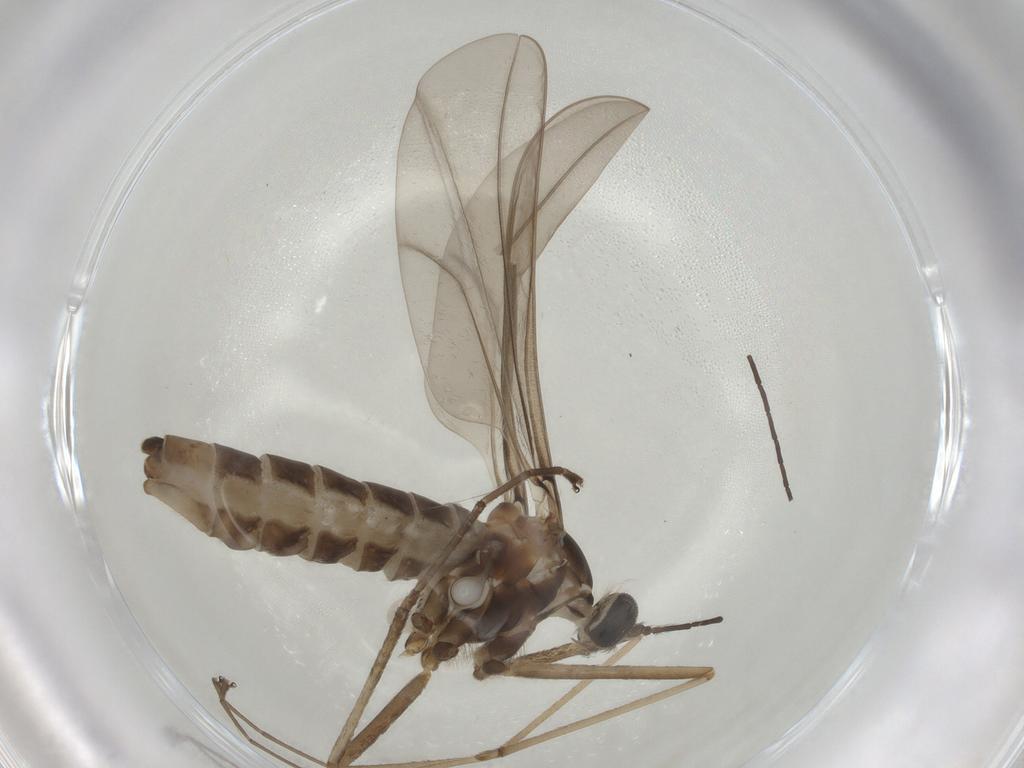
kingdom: Animalia
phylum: Arthropoda
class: Insecta
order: Diptera
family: Cecidomyiidae
